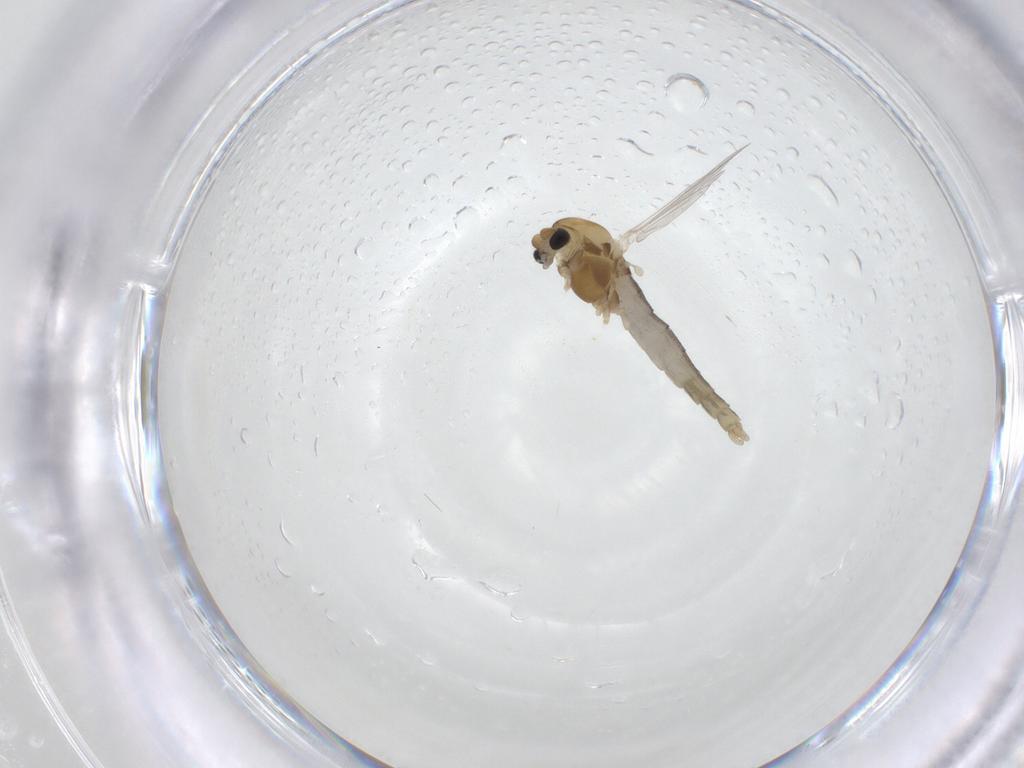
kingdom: Animalia
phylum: Arthropoda
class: Insecta
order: Diptera
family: Chironomidae
